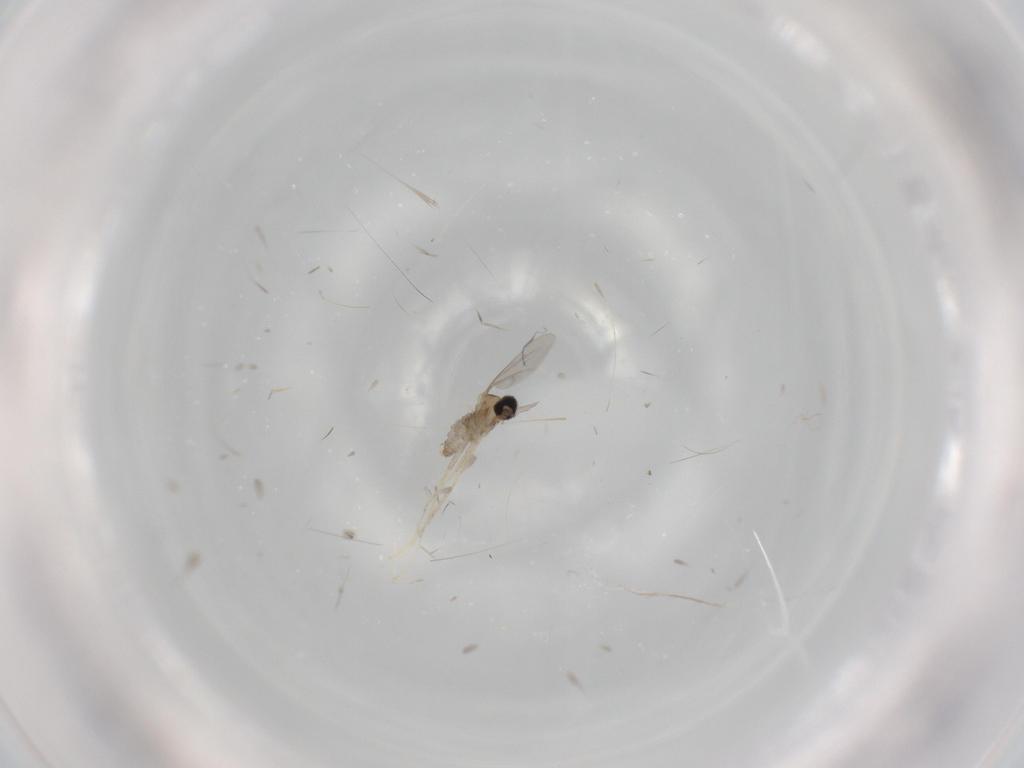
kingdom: Animalia
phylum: Arthropoda
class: Insecta
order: Diptera
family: Cecidomyiidae
